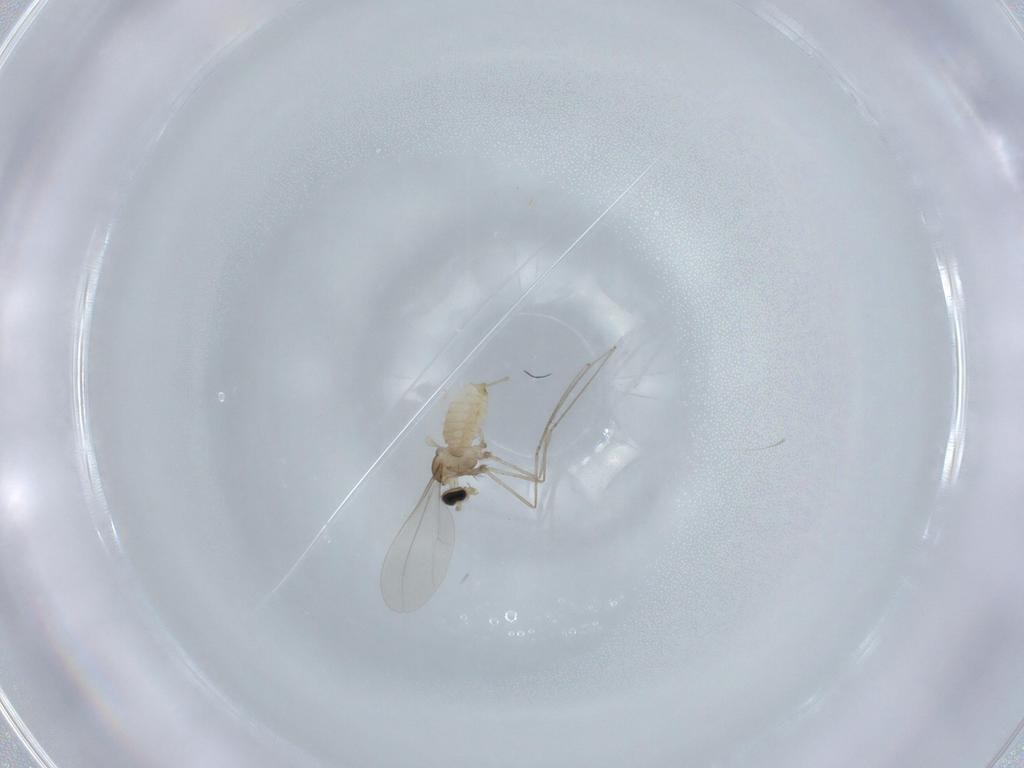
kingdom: Animalia
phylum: Arthropoda
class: Insecta
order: Diptera
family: Cecidomyiidae
